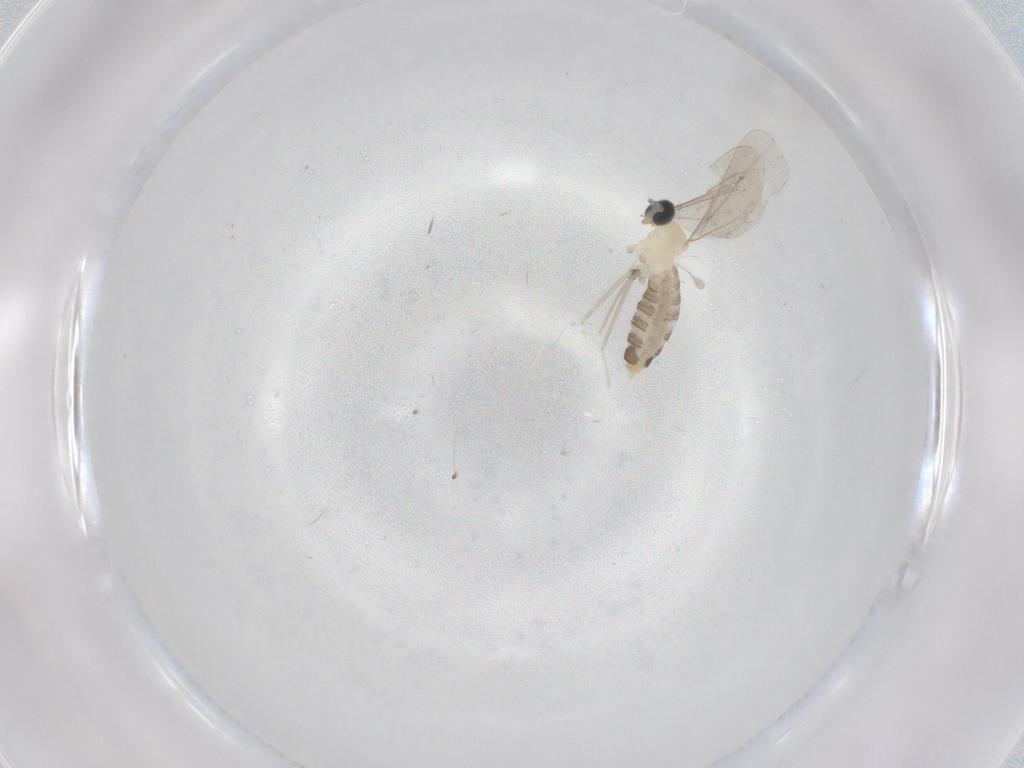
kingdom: Animalia
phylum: Arthropoda
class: Insecta
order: Diptera
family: Cecidomyiidae
